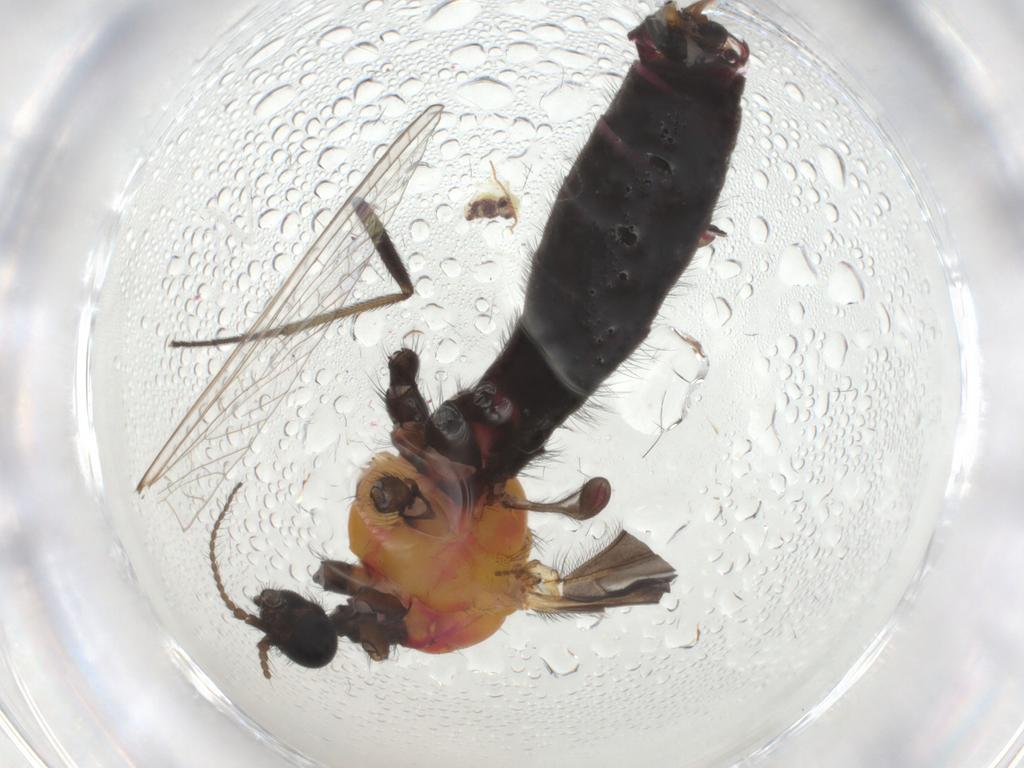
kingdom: Animalia
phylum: Arthropoda
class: Insecta
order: Diptera
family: Limoniidae
